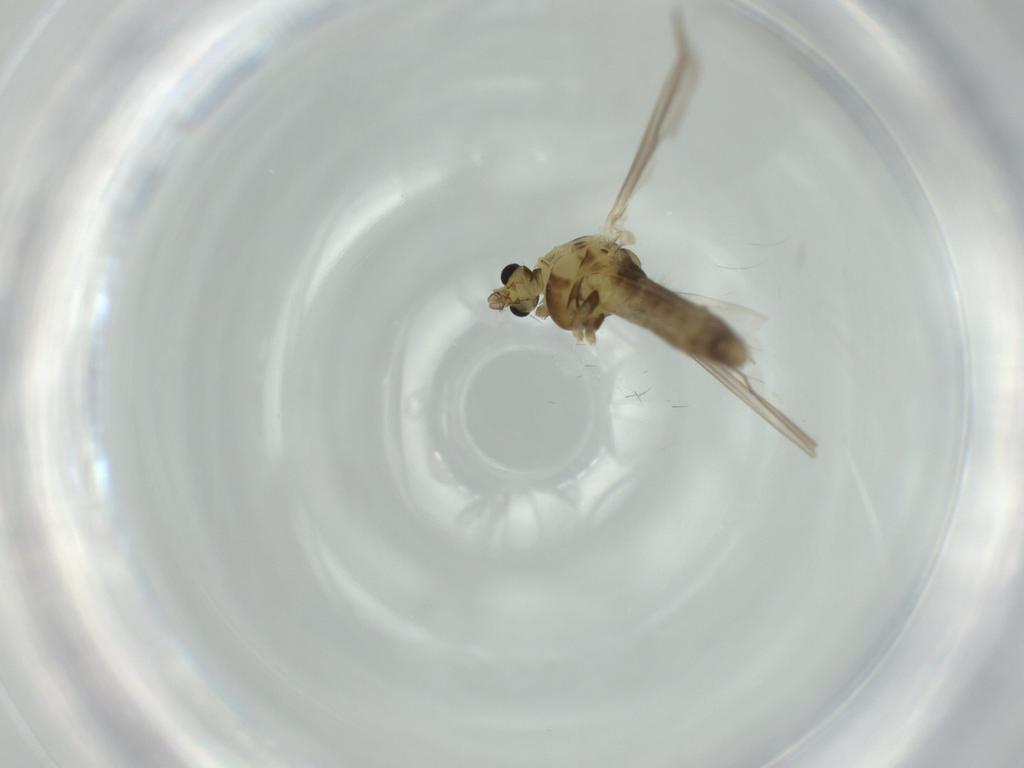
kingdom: Animalia
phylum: Arthropoda
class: Insecta
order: Diptera
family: Chironomidae
